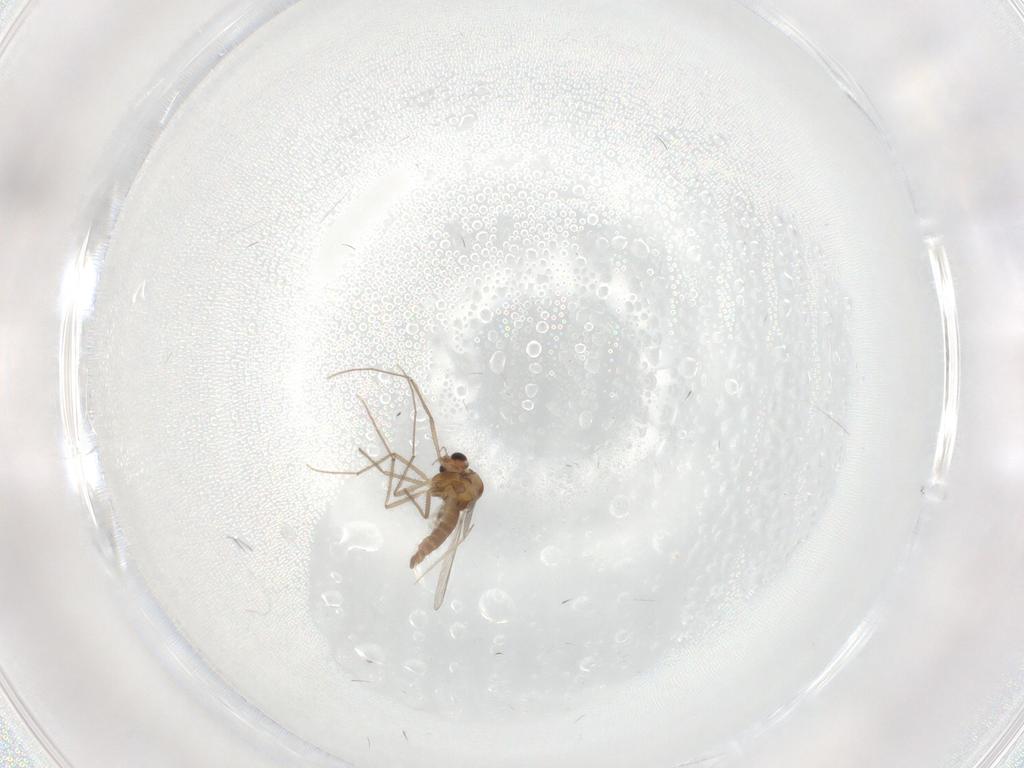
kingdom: Animalia
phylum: Arthropoda
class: Insecta
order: Diptera
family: Chironomidae
